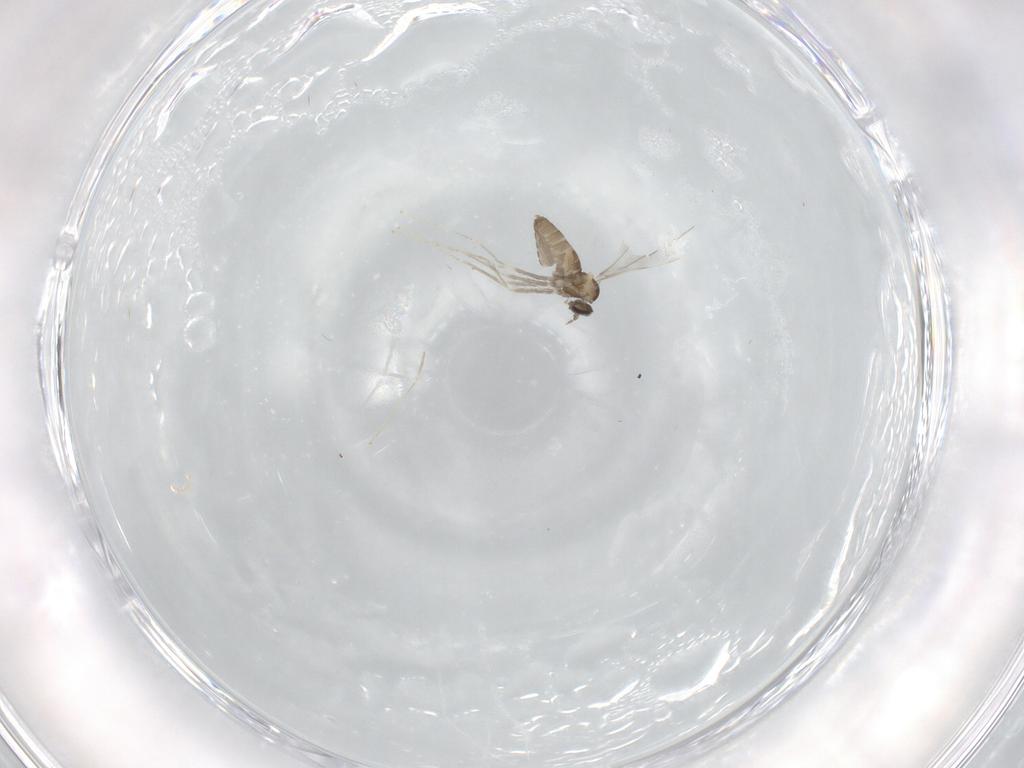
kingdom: Animalia
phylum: Arthropoda
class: Insecta
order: Diptera
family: Cecidomyiidae
